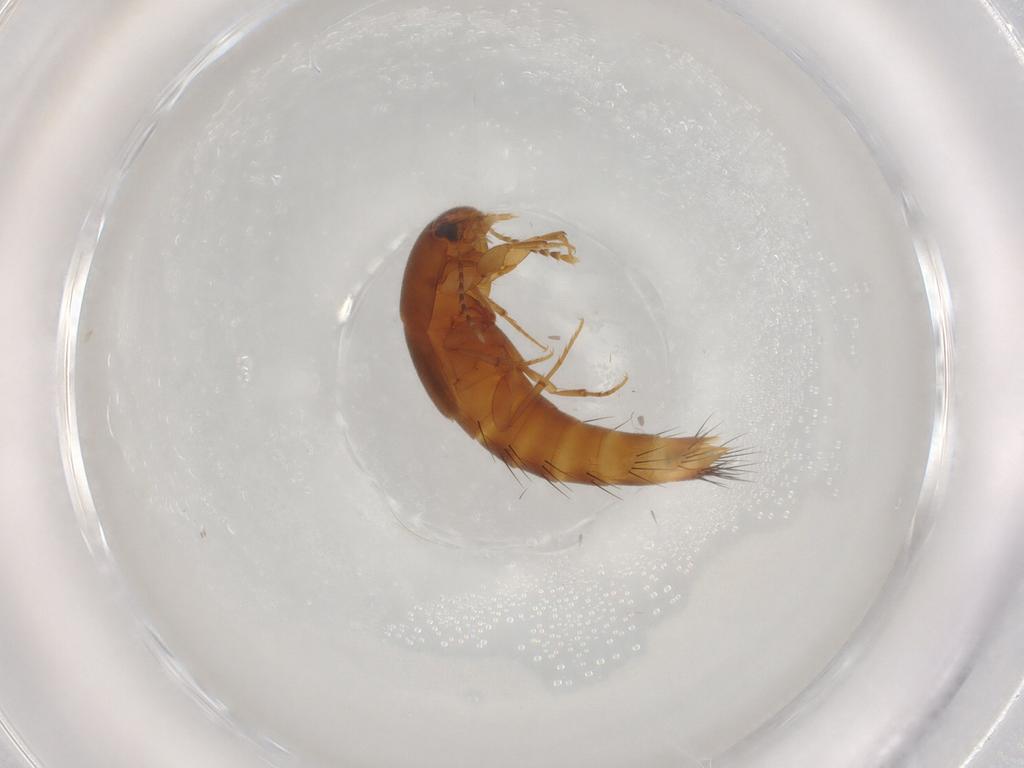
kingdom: Animalia
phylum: Arthropoda
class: Insecta
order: Coleoptera
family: Staphylinidae
